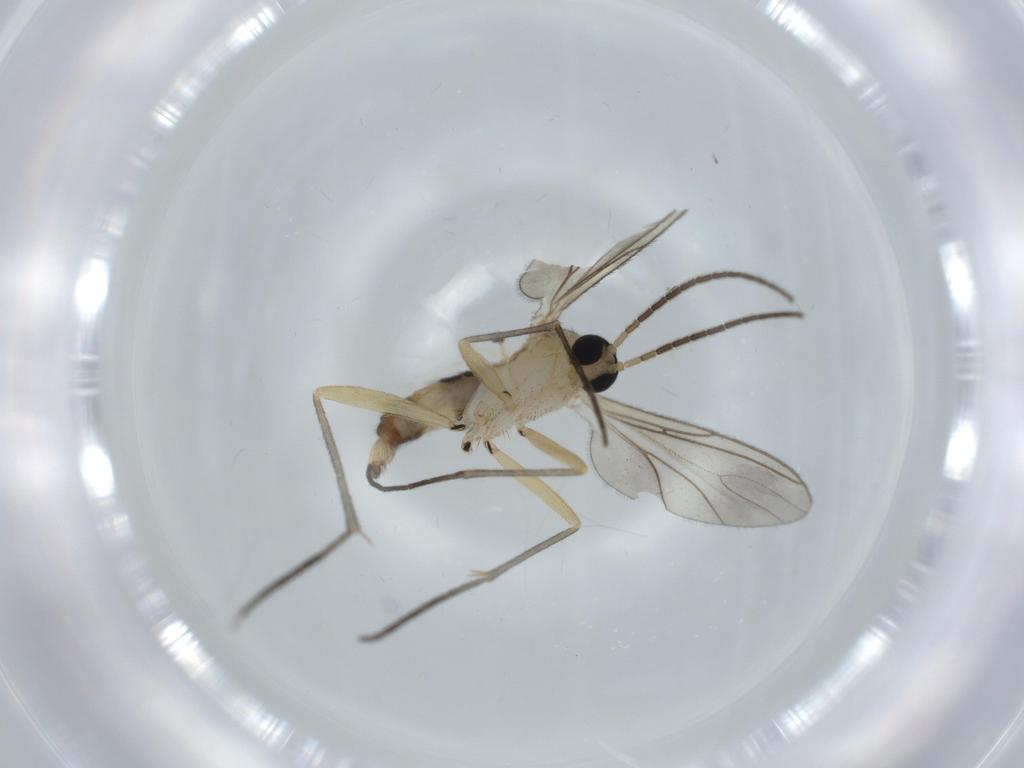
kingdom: Animalia
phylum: Arthropoda
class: Insecta
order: Diptera
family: Sciaridae
